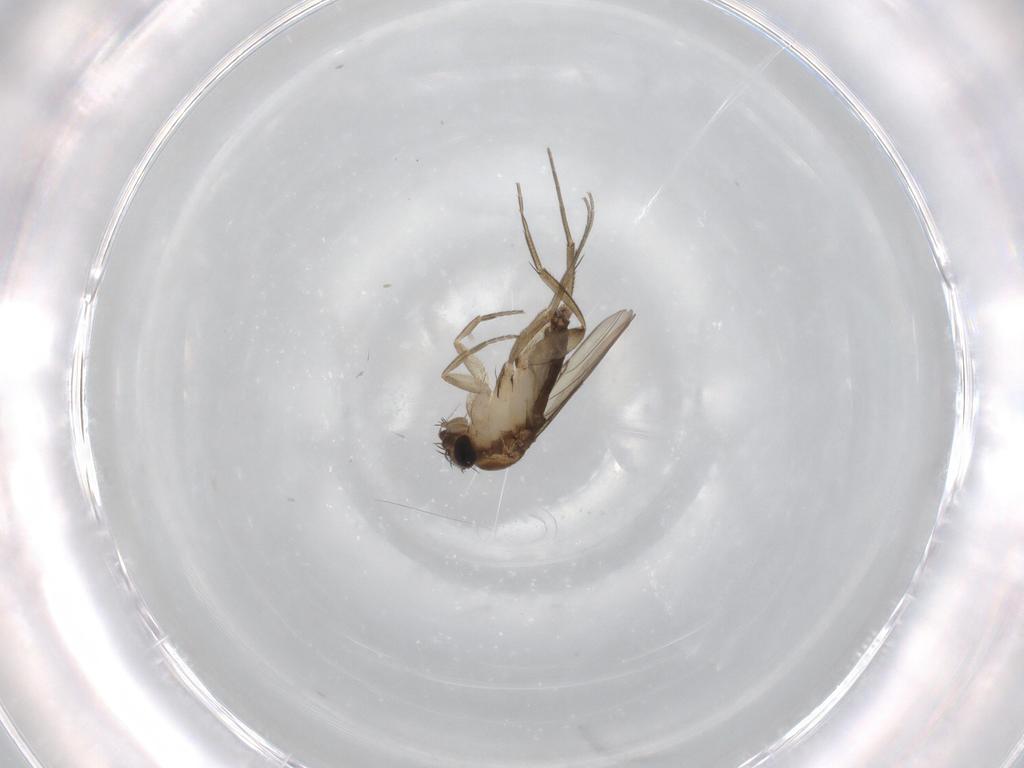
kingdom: Animalia
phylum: Arthropoda
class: Insecta
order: Diptera
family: Phoridae
